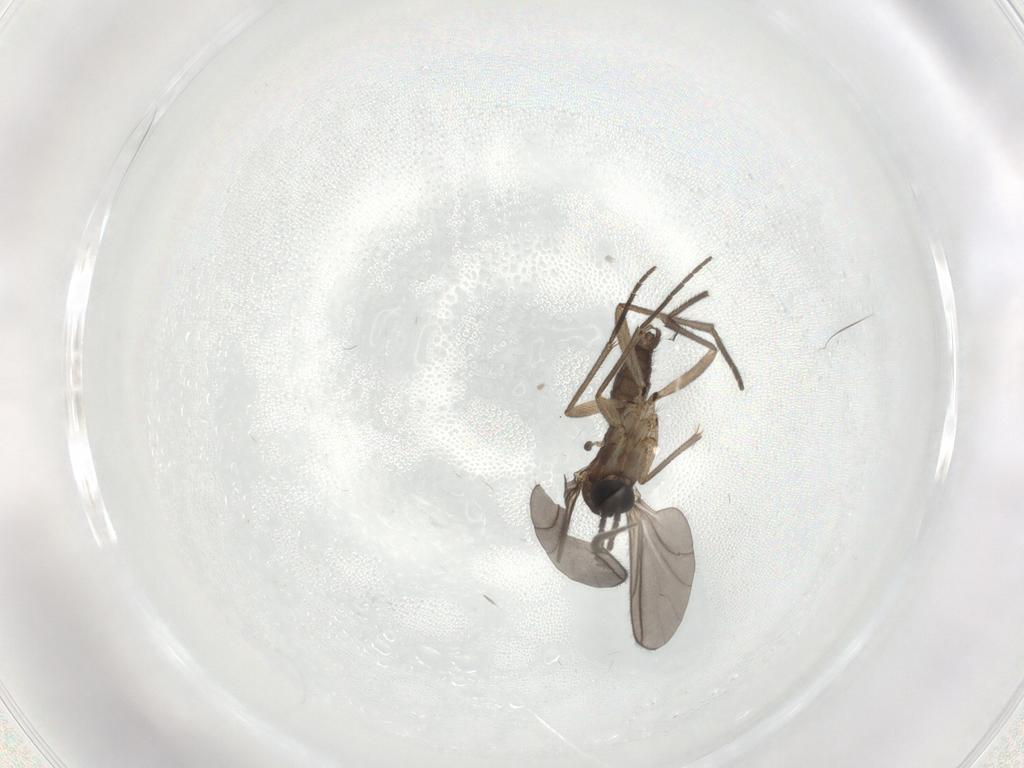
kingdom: Animalia
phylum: Arthropoda
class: Insecta
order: Diptera
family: Sciaridae
